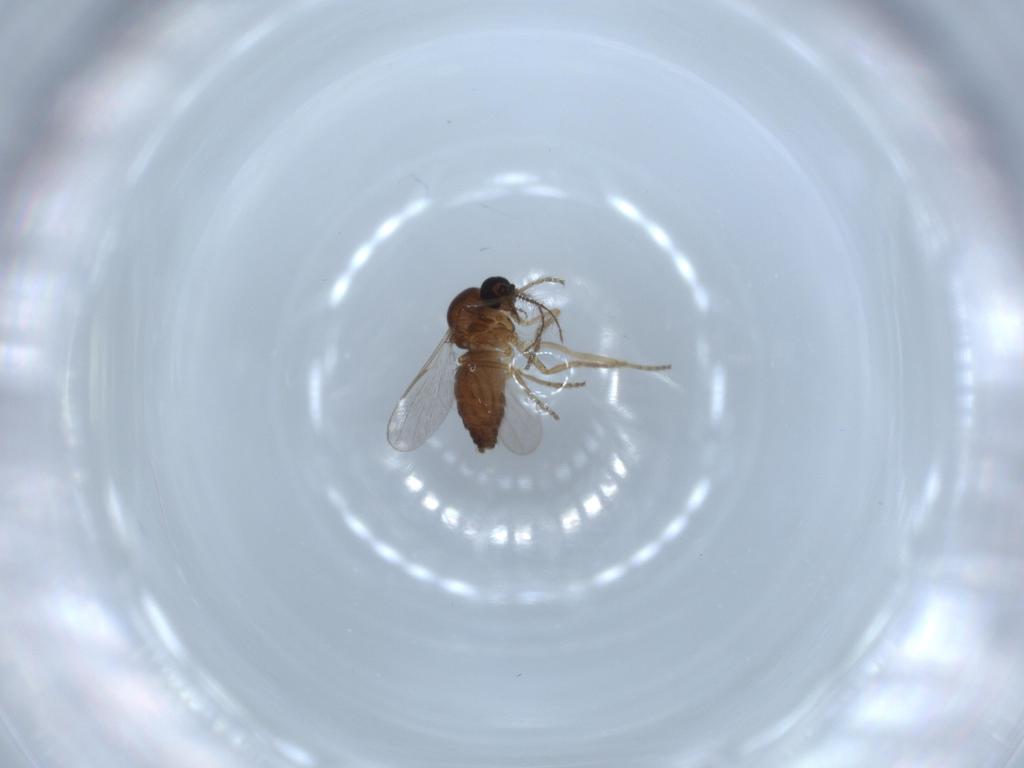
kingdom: Animalia
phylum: Arthropoda
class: Insecta
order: Diptera
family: Ceratopogonidae
